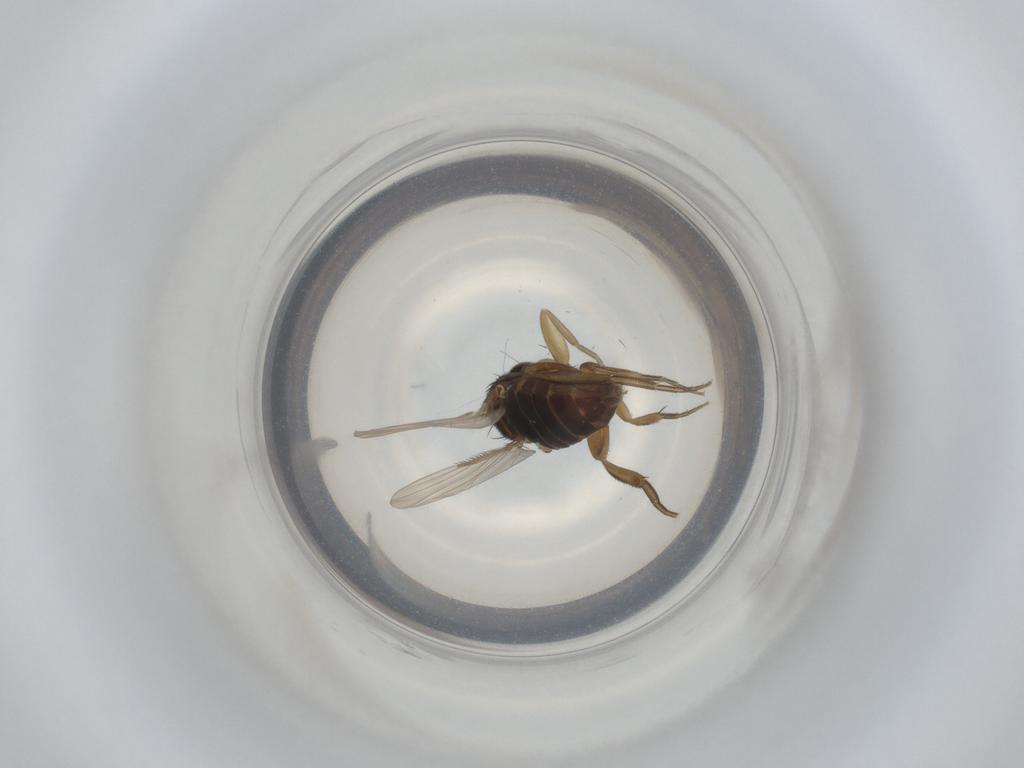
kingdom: Animalia
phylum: Arthropoda
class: Insecta
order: Diptera
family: Phoridae
